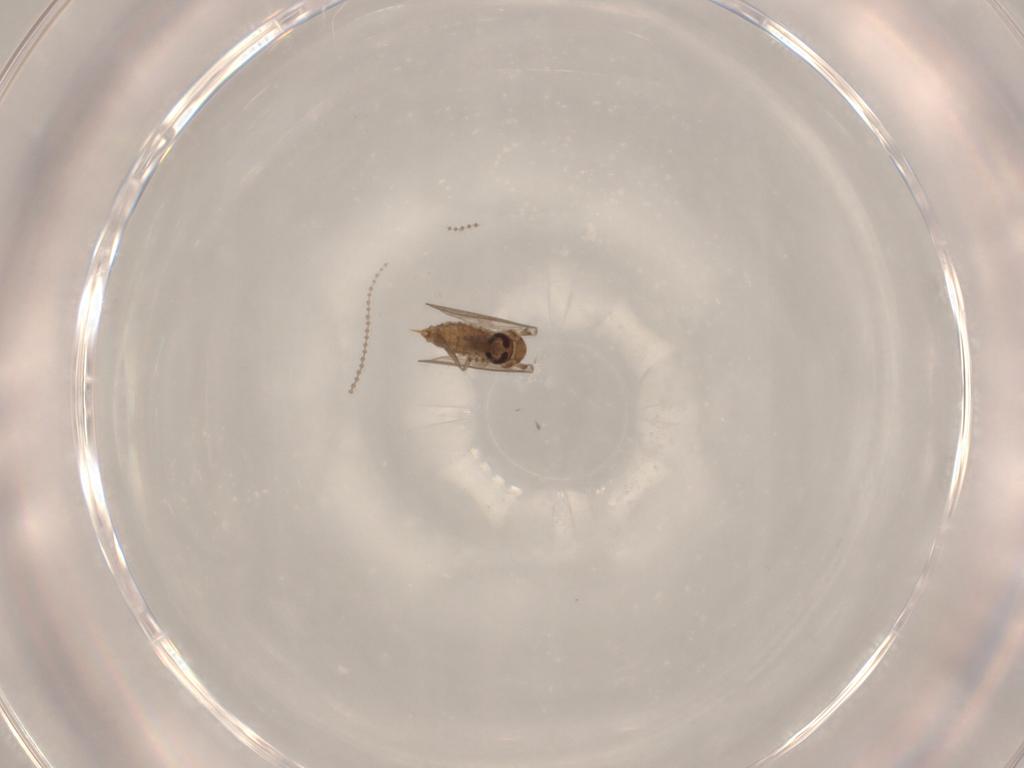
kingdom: Animalia
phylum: Arthropoda
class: Insecta
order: Diptera
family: Psychodidae
